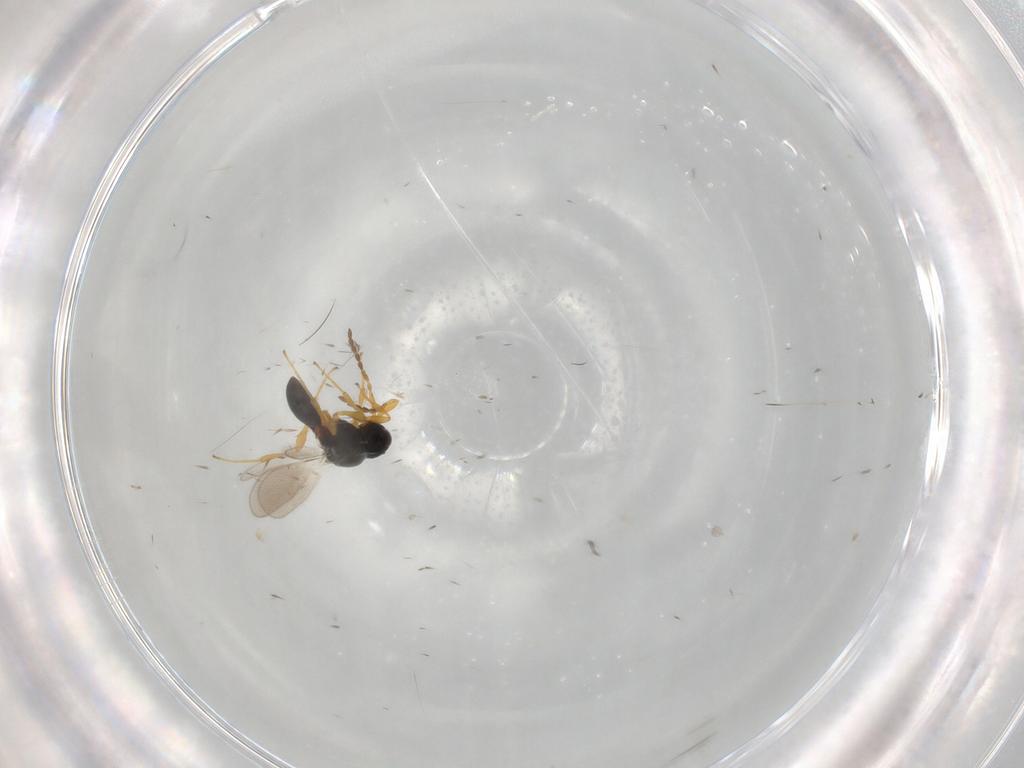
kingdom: Animalia
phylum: Arthropoda
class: Insecta
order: Hymenoptera
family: Platygastridae
